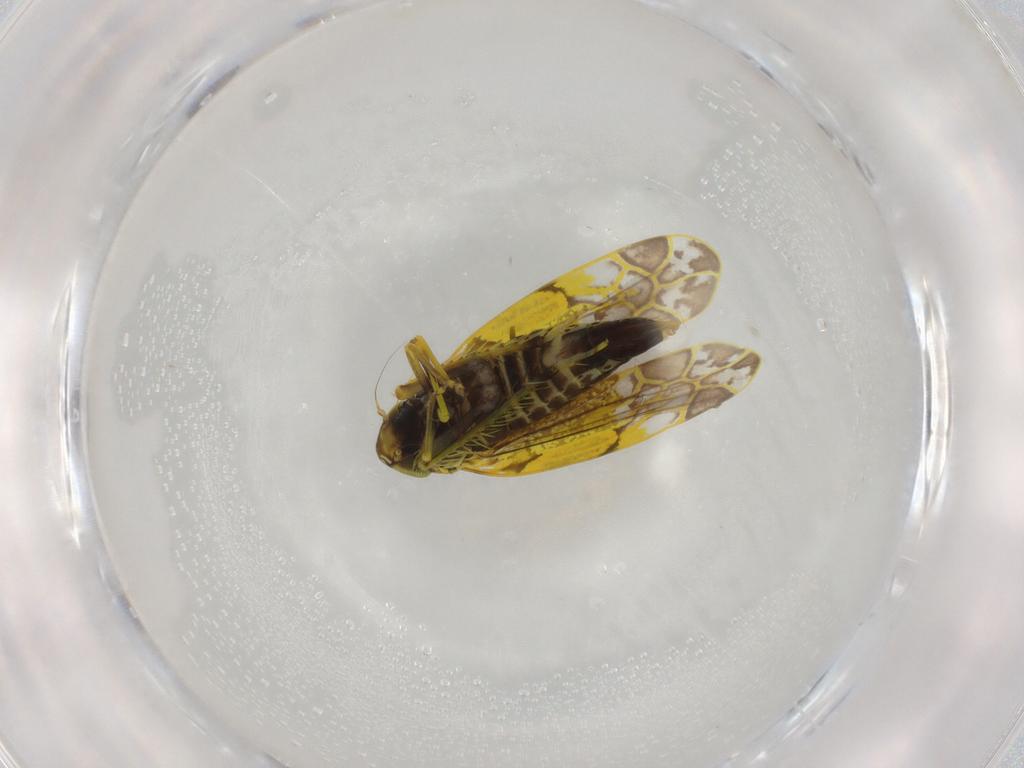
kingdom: Animalia
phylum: Arthropoda
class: Insecta
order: Hemiptera
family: Cicadellidae
